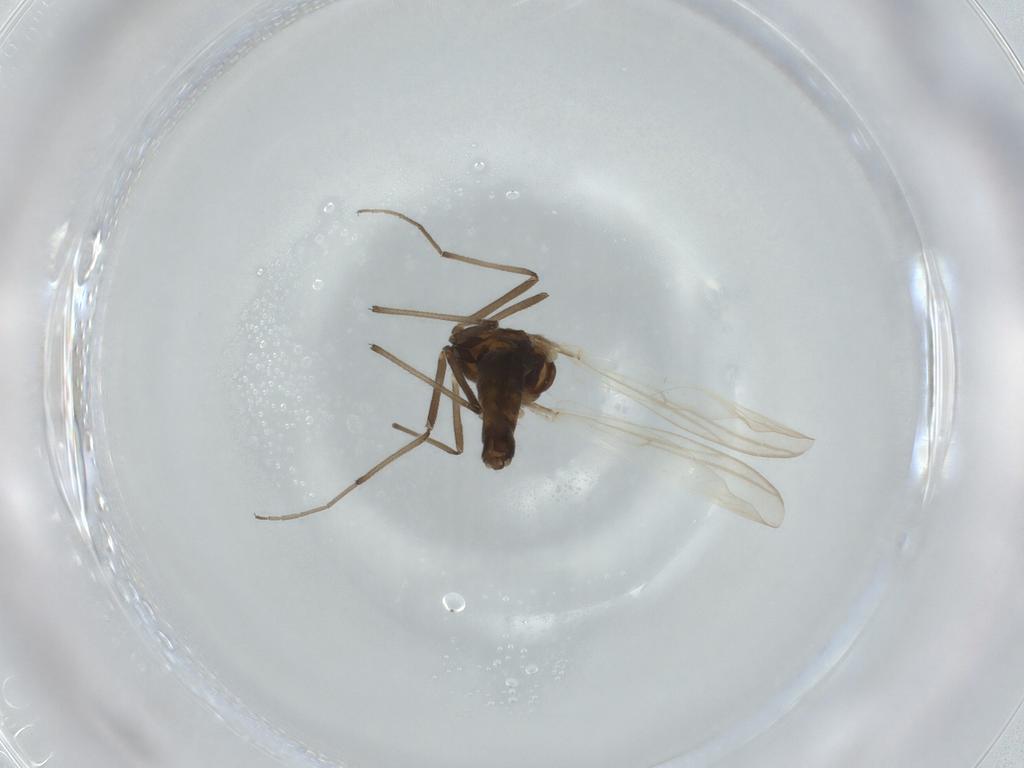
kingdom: Animalia
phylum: Arthropoda
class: Insecta
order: Diptera
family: Chironomidae
